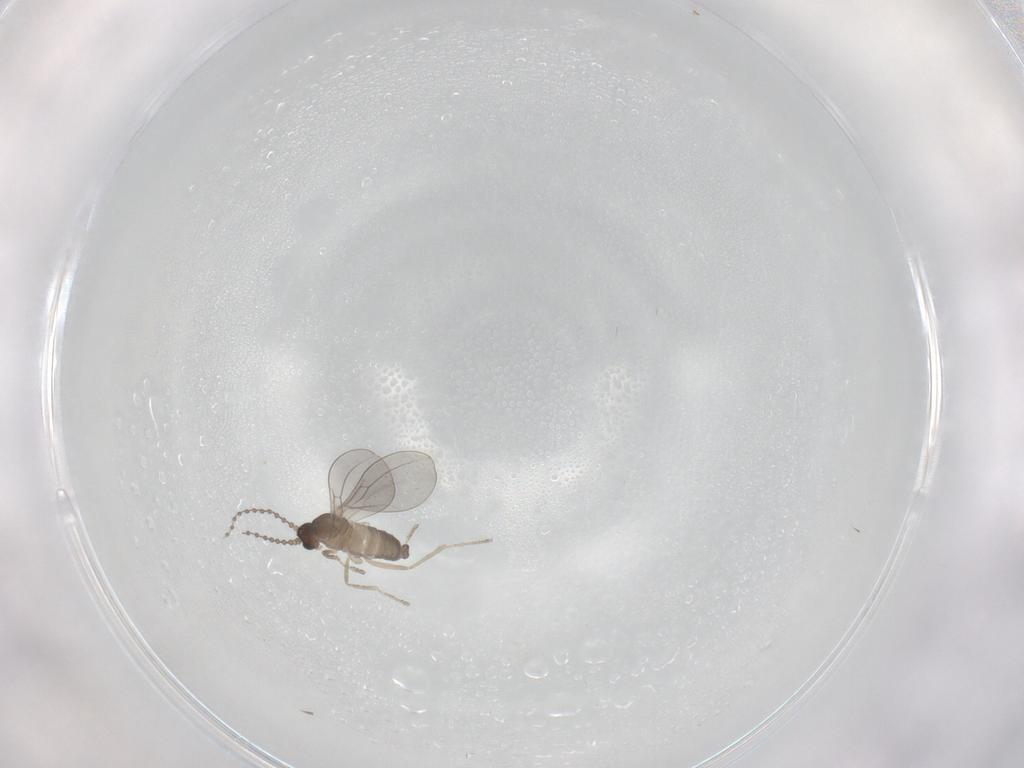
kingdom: Animalia
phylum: Arthropoda
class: Insecta
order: Diptera
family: Cecidomyiidae
